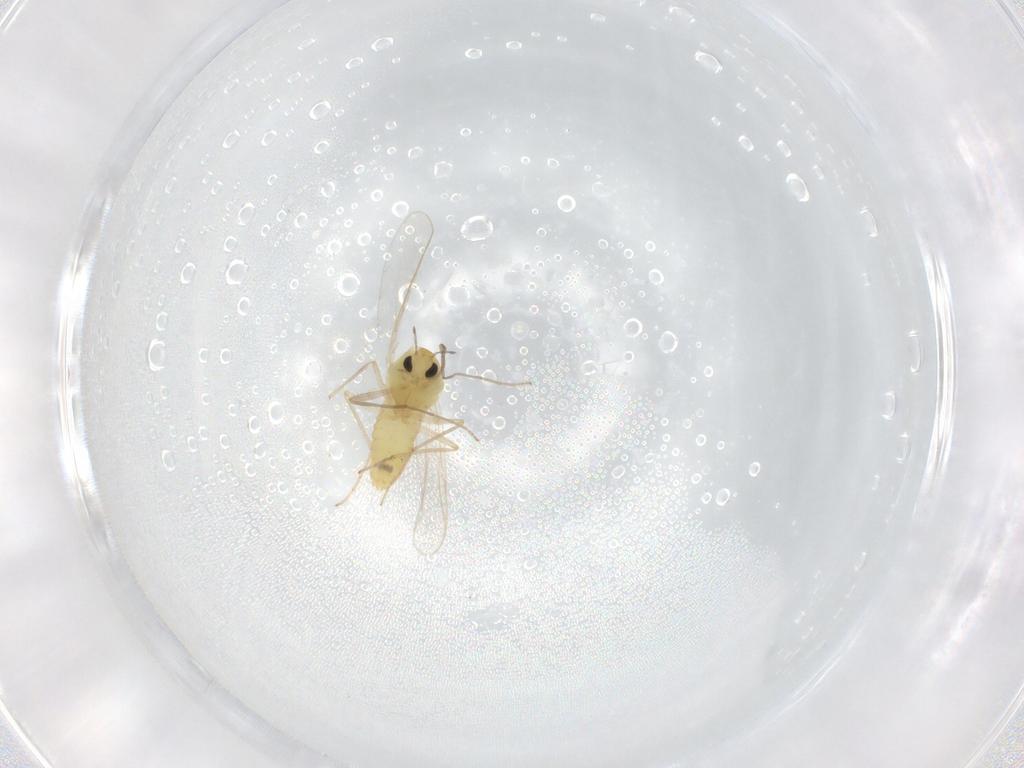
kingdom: Animalia
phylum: Arthropoda
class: Insecta
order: Diptera
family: Chironomidae
